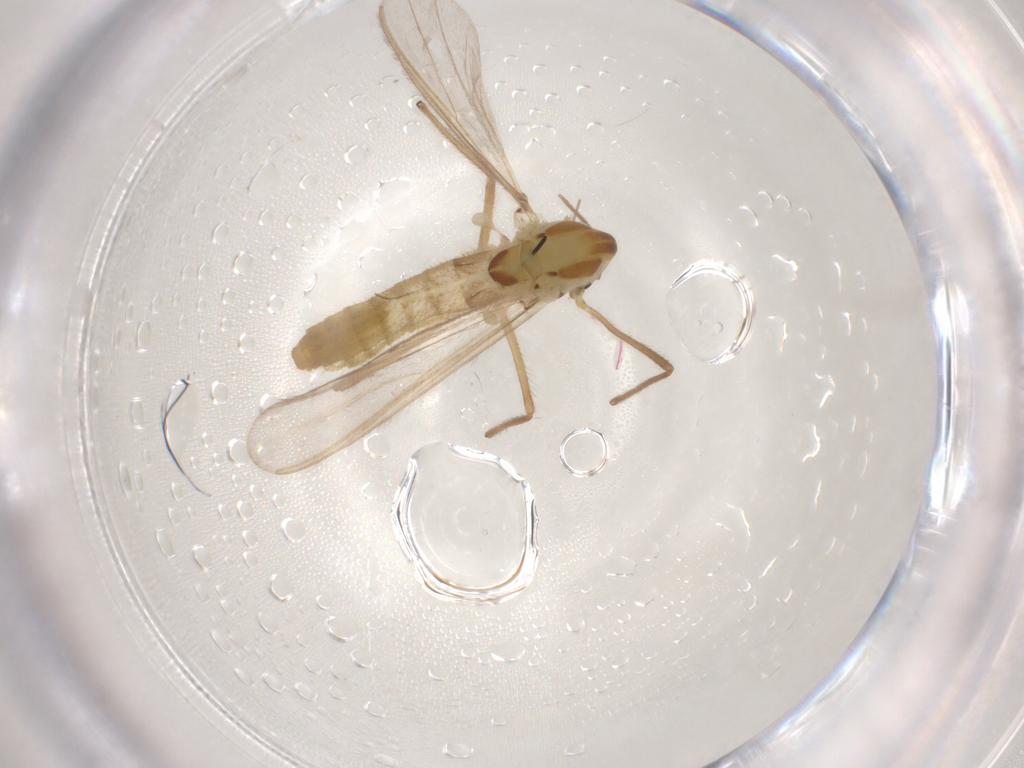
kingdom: Animalia
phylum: Arthropoda
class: Insecta
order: Diptera
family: Chironomidae
